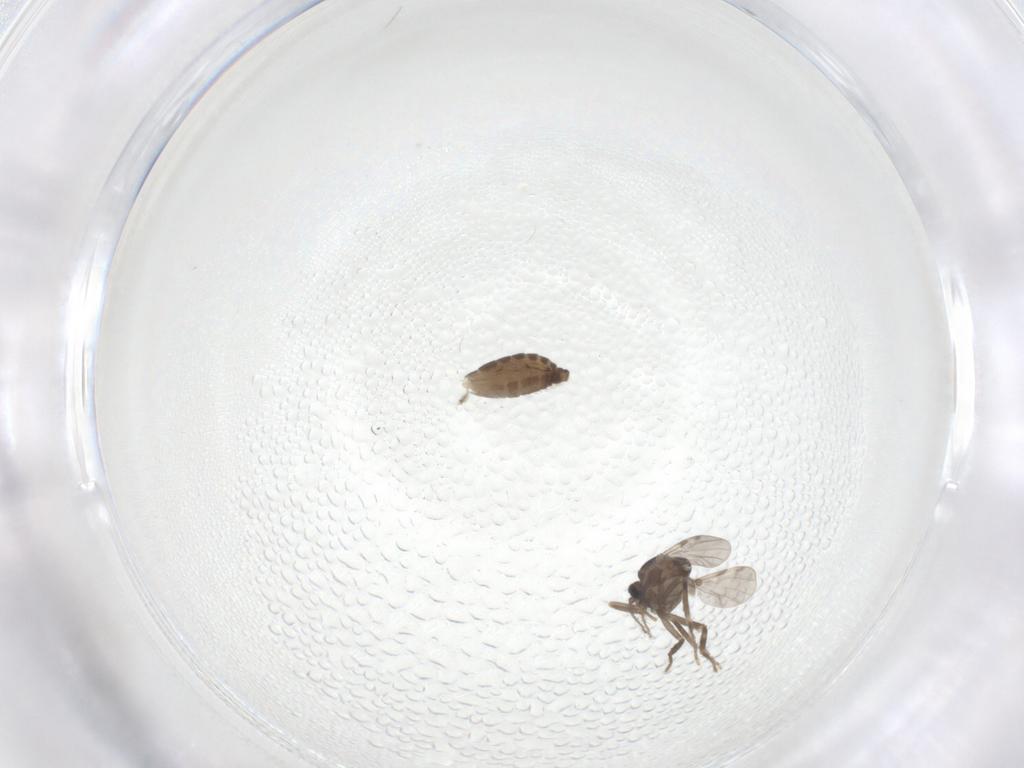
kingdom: Animalia
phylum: Arthropoda
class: Insecta
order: Diptera
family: Ceratopogonidae
